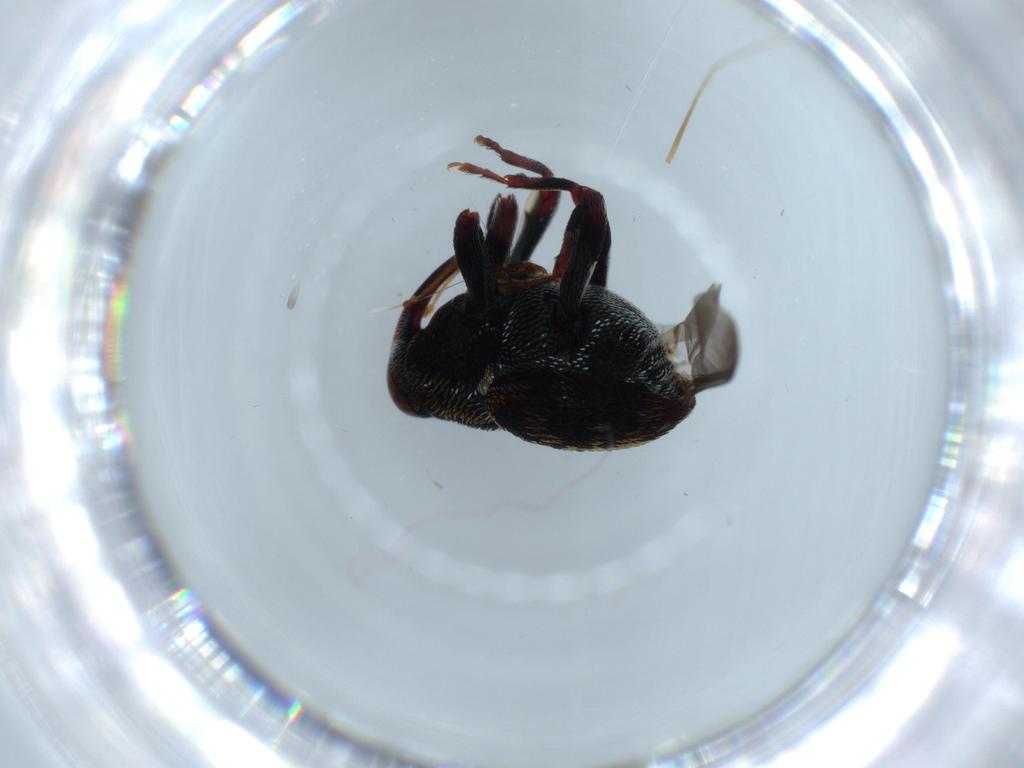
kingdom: Animalia
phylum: Arthropoda
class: Insecta
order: Coleoptera
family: Curculionidae
